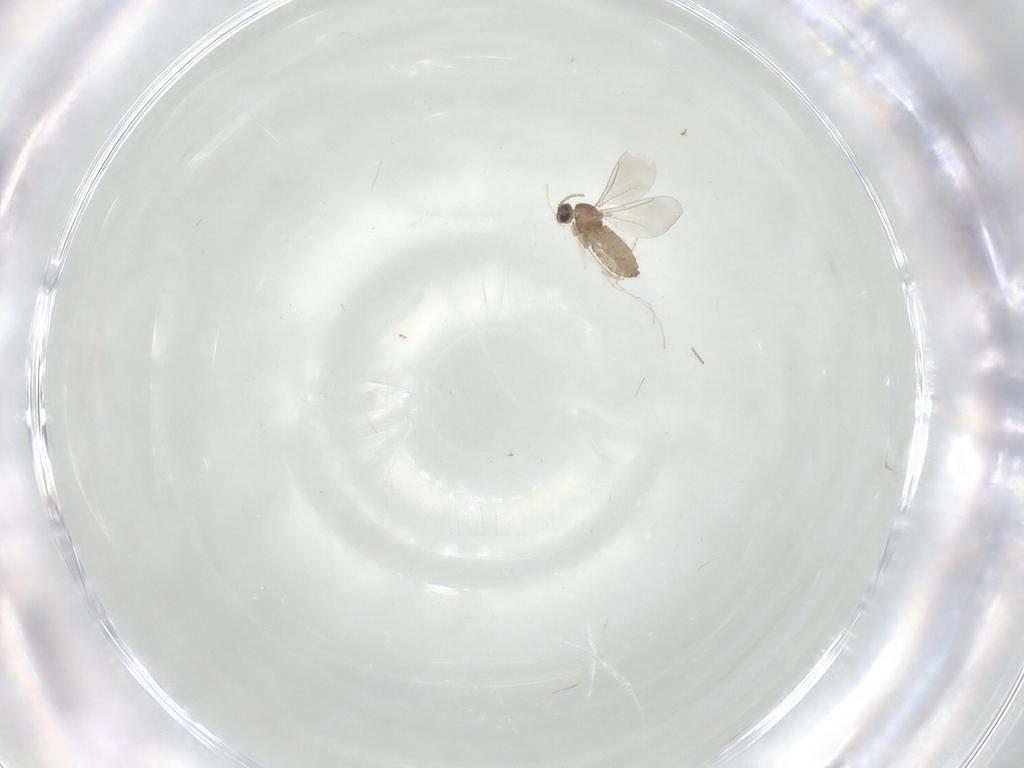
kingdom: Animalia
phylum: Arthropoda
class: Insecta
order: Diptera
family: Cecidomyiidae
